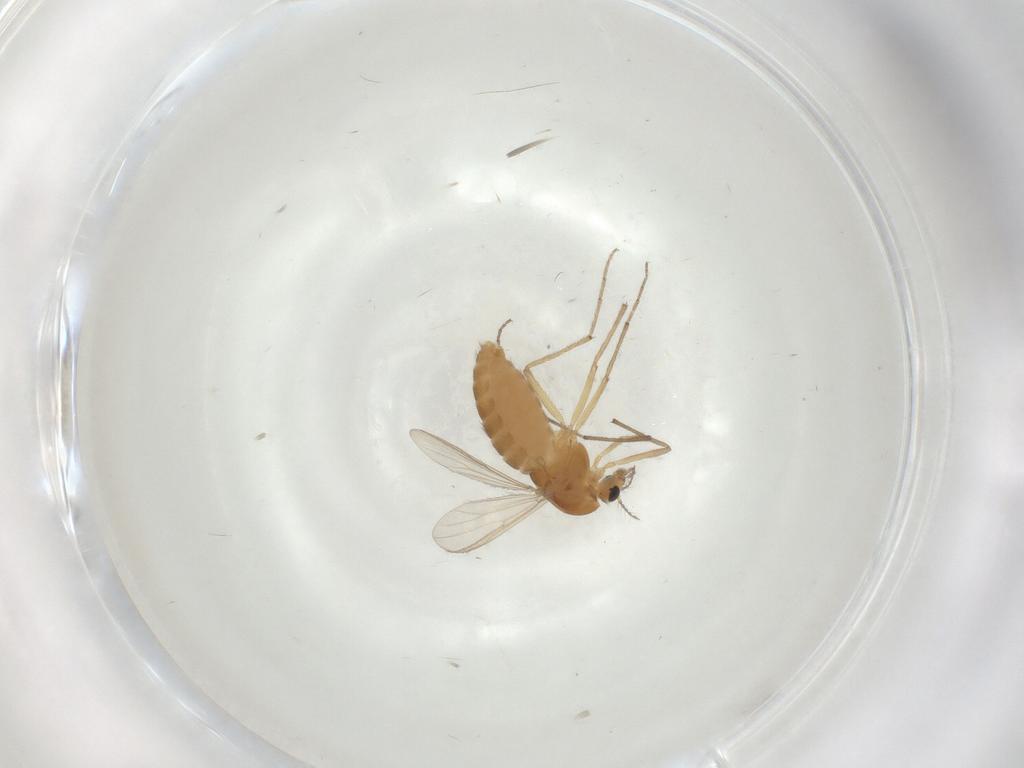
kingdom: Animalia
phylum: Arthropoda
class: Insecta
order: Diptera
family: Chironomidae
